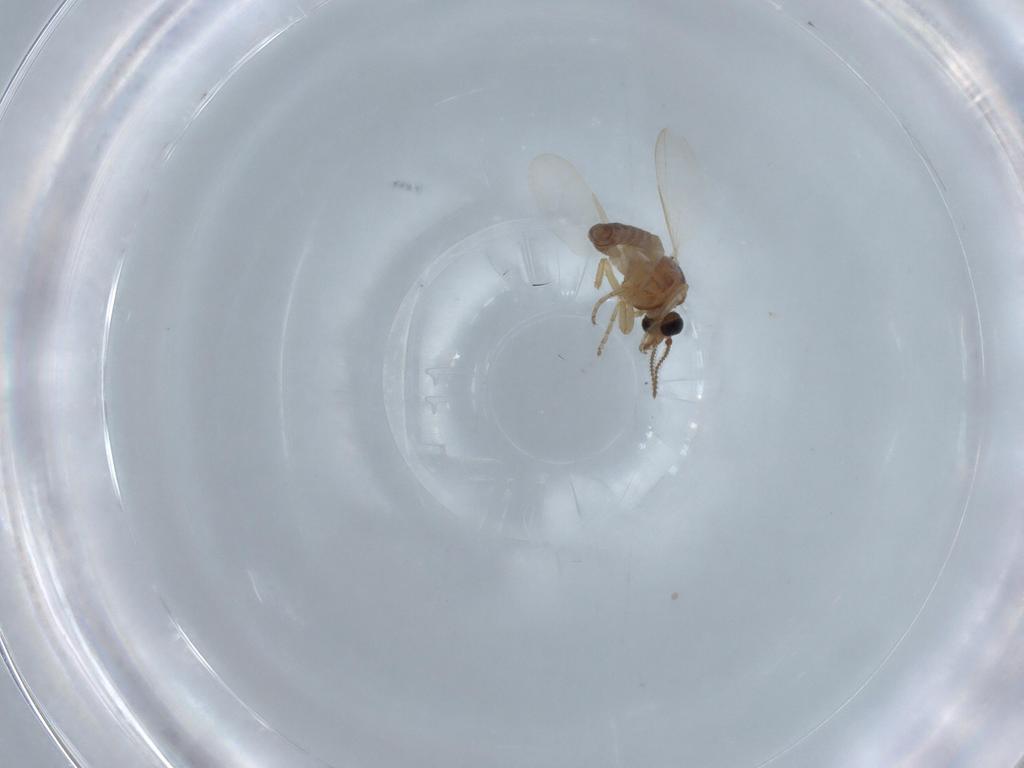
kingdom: Animalia
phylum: Arthropoda
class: Insecta
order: Diptera
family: Ceratopogonidae
